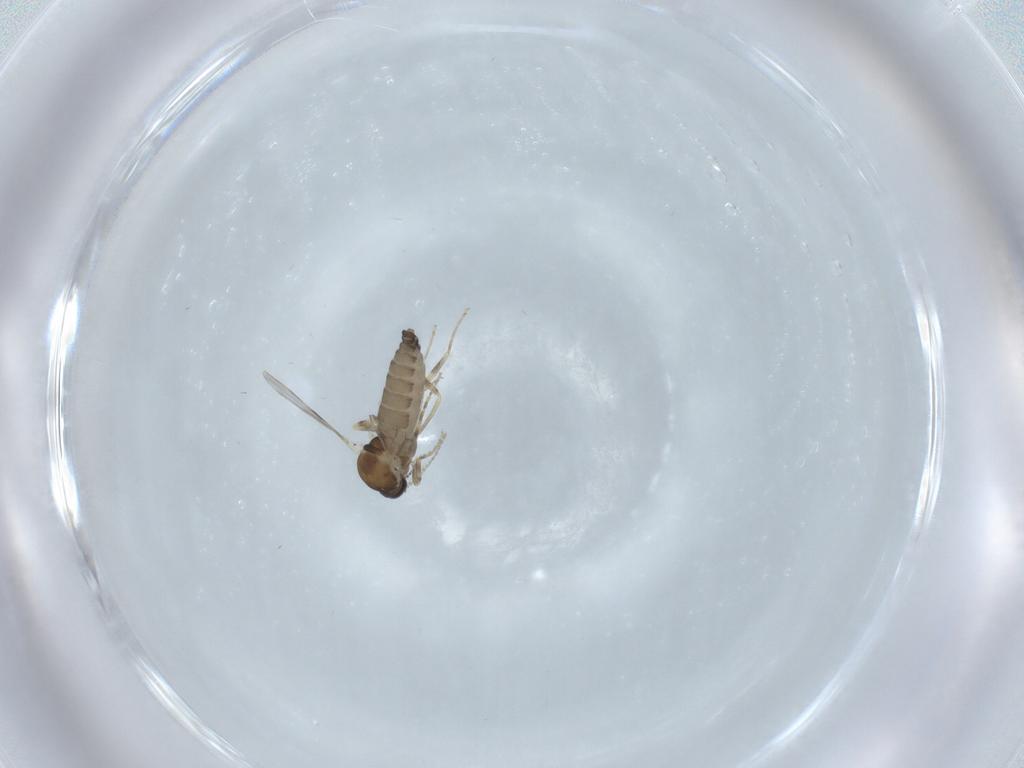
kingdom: Animalia
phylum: Arthropoda
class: Insecta
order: Diptera
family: Ceratopogonidae
